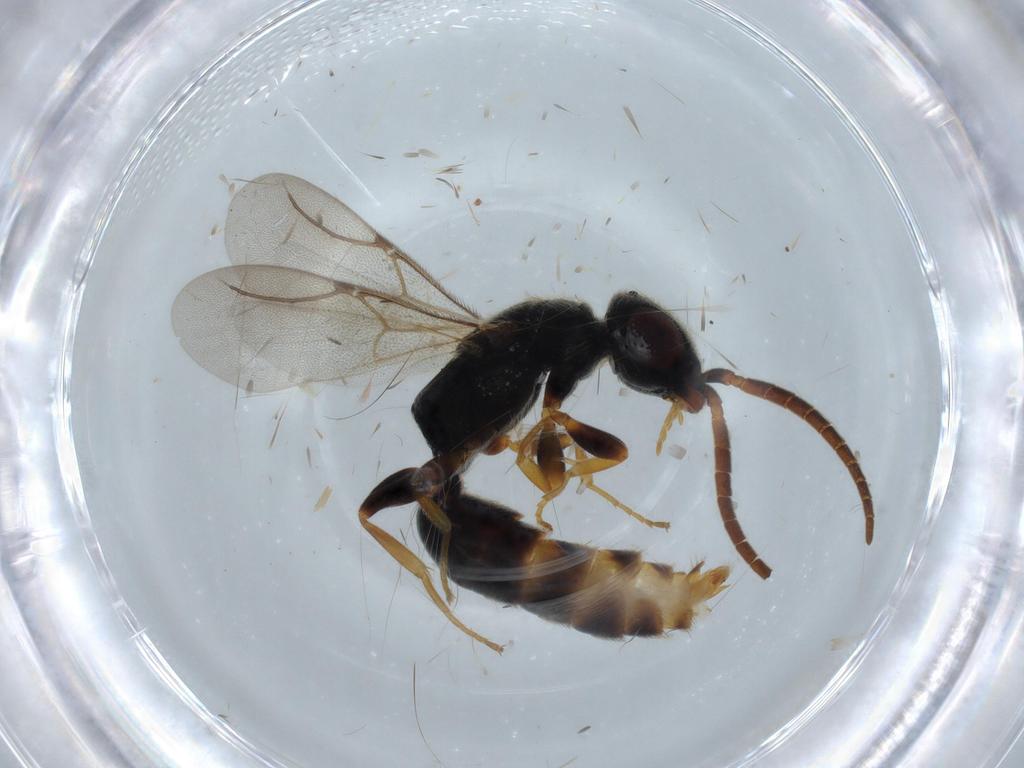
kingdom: Animalia
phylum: Arthropoda
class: Insecta
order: Hymenoptera
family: Bethylidae
